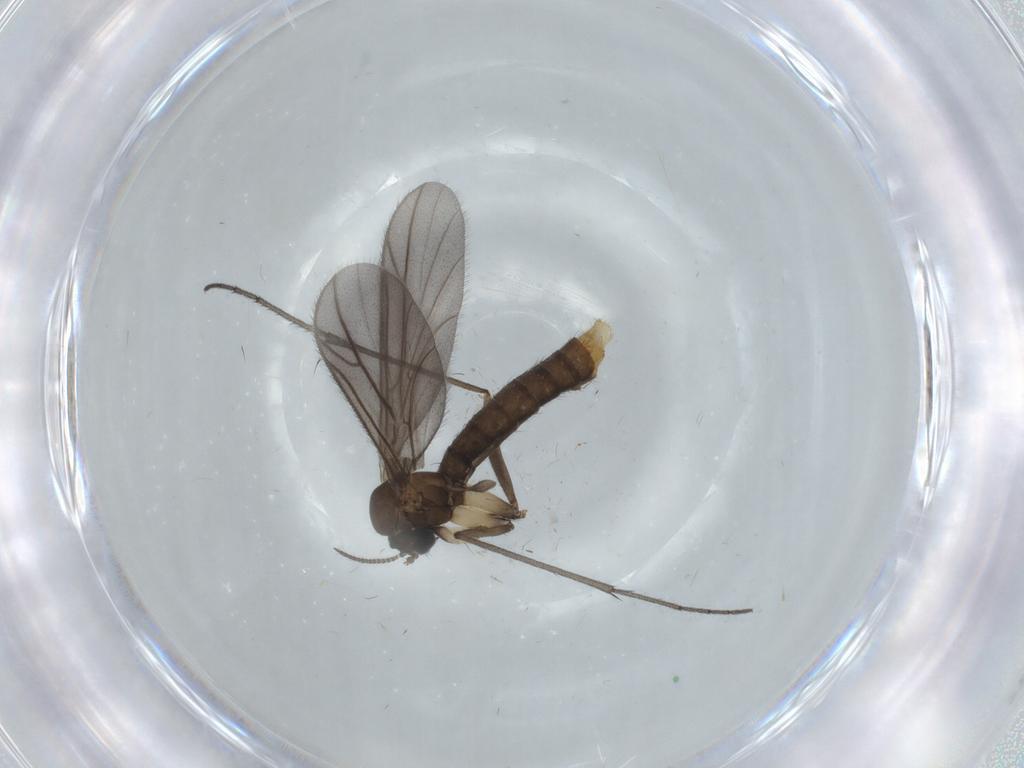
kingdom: Animalia
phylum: Arthropoda
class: Insecta
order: Diptera
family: Ditomyiidae
